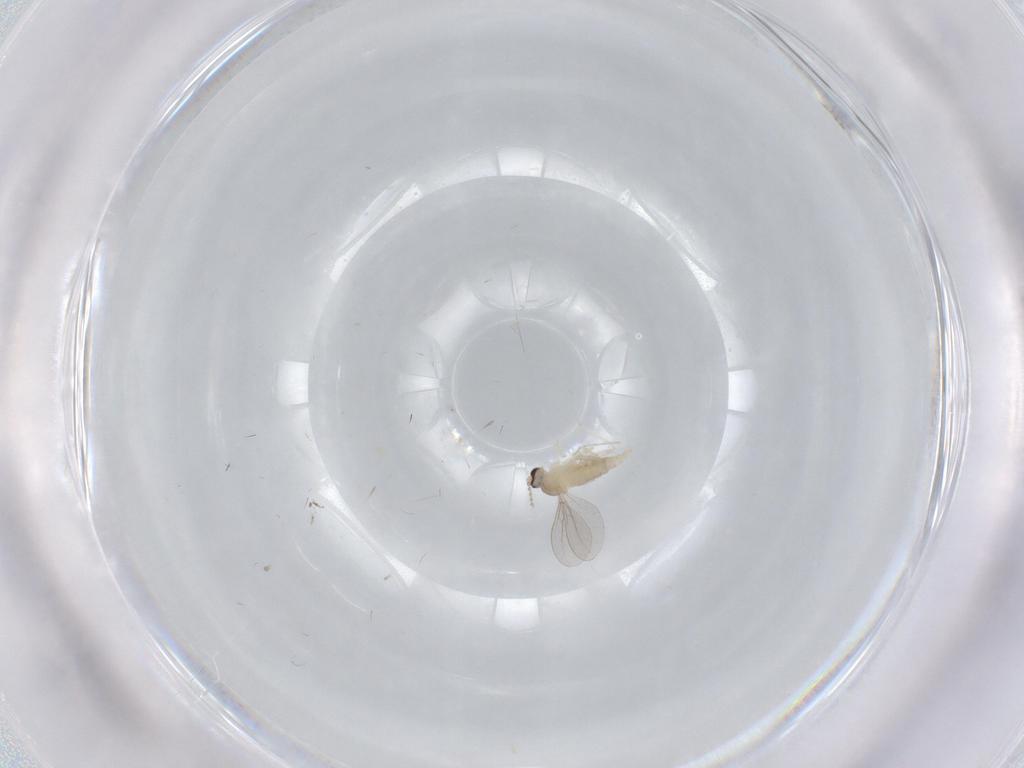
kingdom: Animalia
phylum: Arthropoda
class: Insecta
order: Diptera
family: Cecidomyiidae
